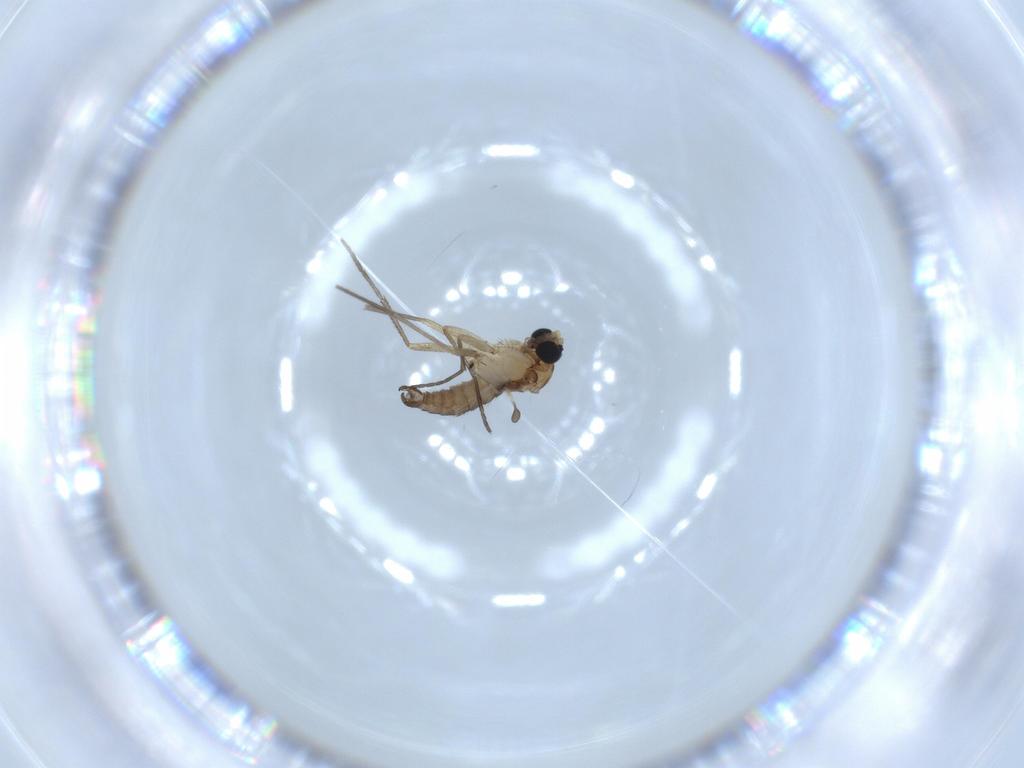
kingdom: Animalia
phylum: Arthropoda
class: Insecta
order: Diptera
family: Sciaridae
